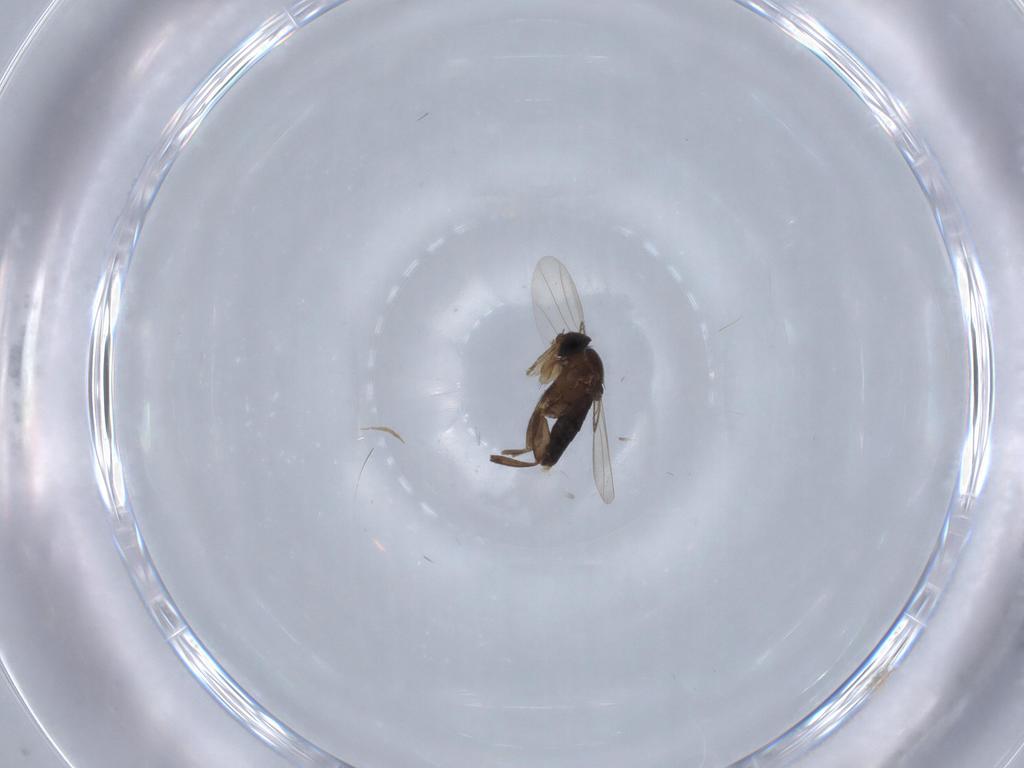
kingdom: Animalia
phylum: Arthropoda
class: Insecta
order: Diptera
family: Phoridae
